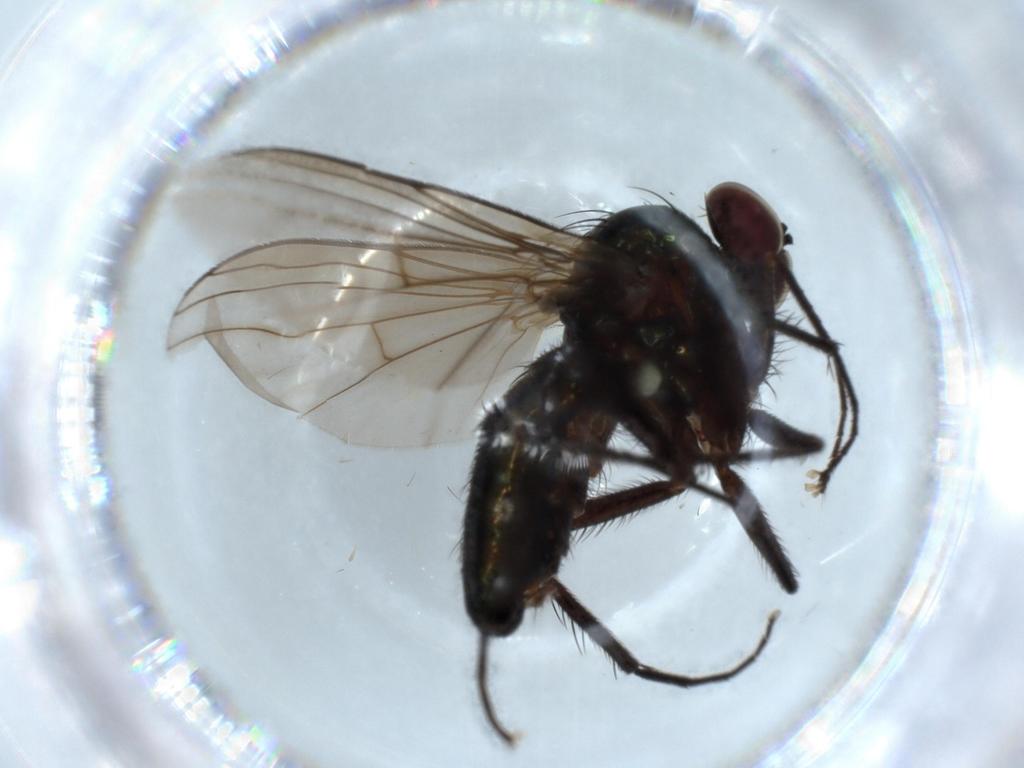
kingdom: Animalia
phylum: Arthropoda
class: Insecta
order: Diptera
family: Dolichopodidae
